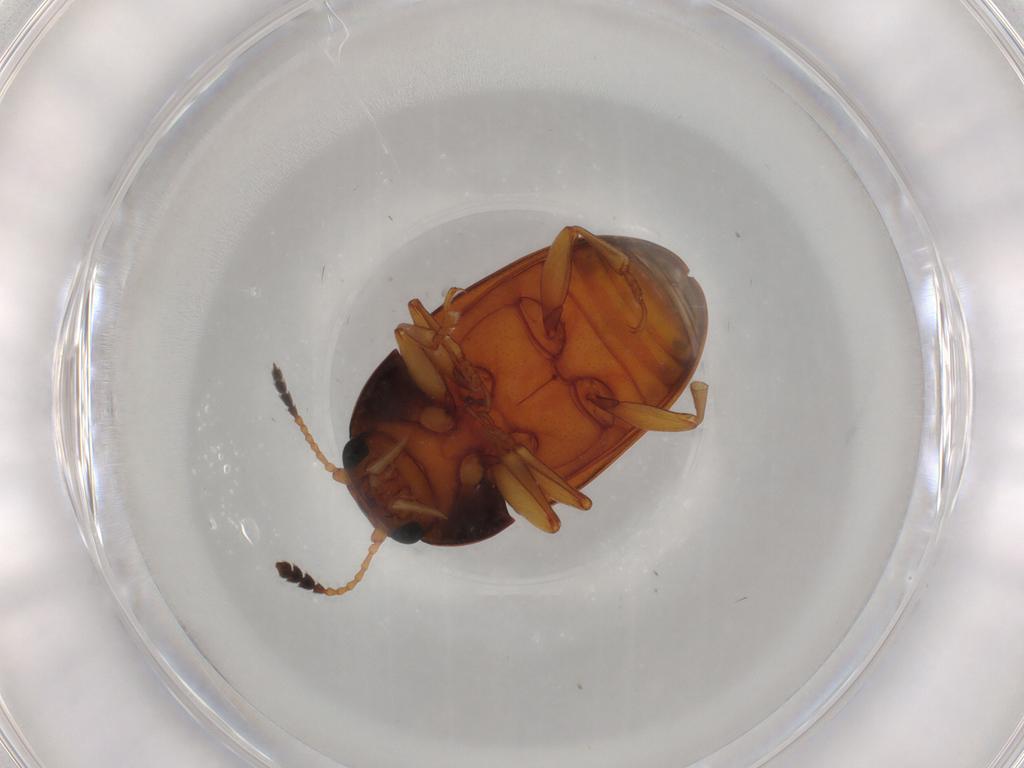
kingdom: Animalia
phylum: Arthropoda
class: Insecta
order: Coleoptera
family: Erotylidae
